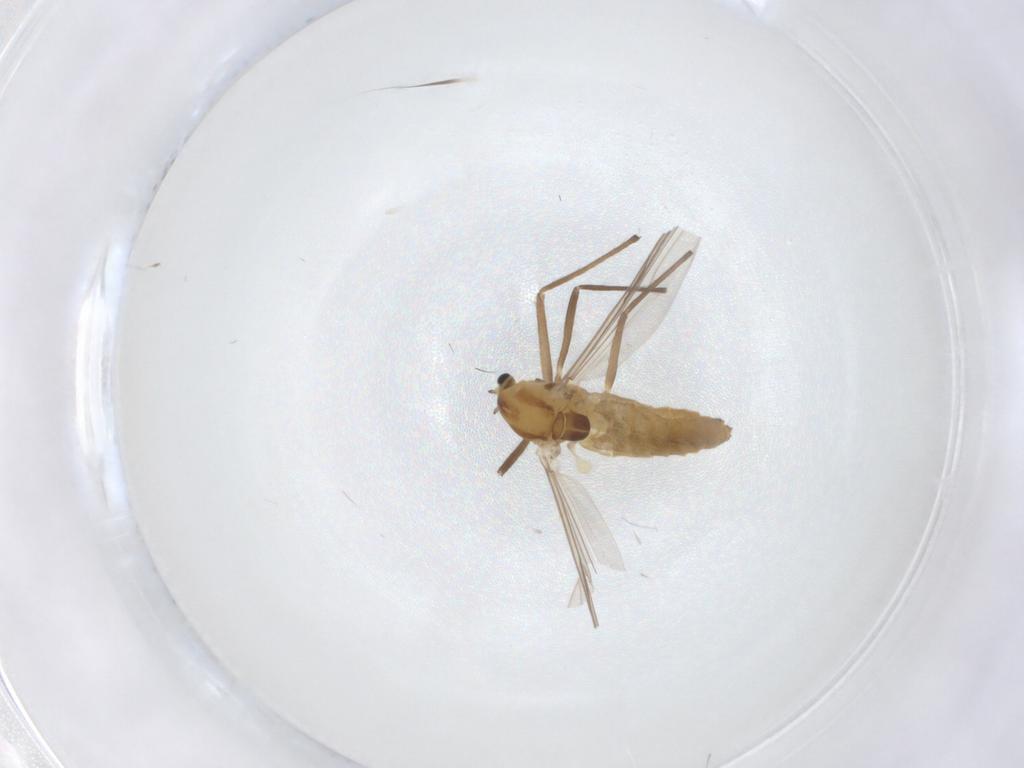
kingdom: Animalia
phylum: Arthropoda
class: Insecta
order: Diptera
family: Chironomidae
